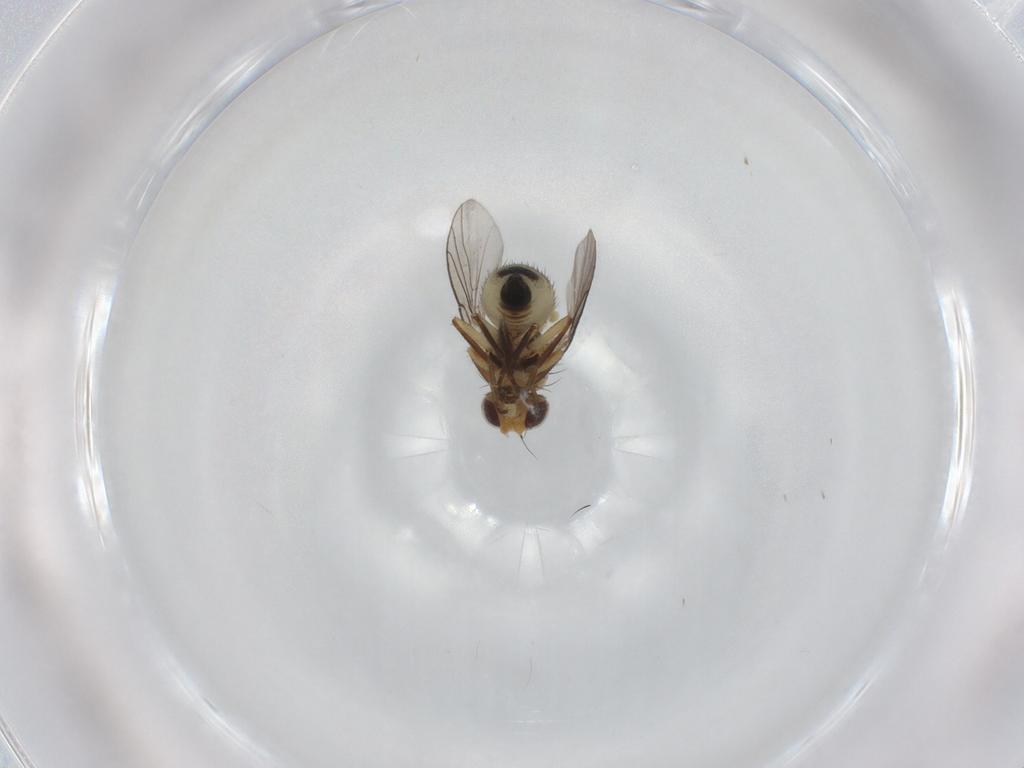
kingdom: Animalia
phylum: Arthropoda
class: Insecta
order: Diptera
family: Agromyzidae
